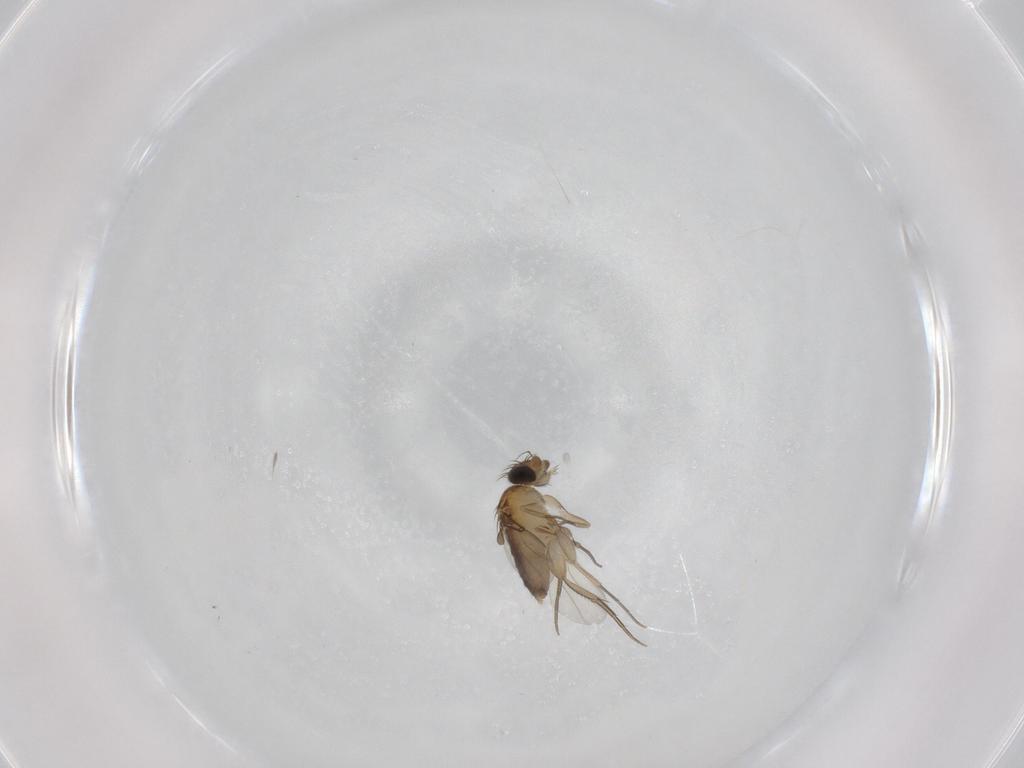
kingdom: Animalia
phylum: Arthropoda
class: Insecta
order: Diptera
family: Phoridae
